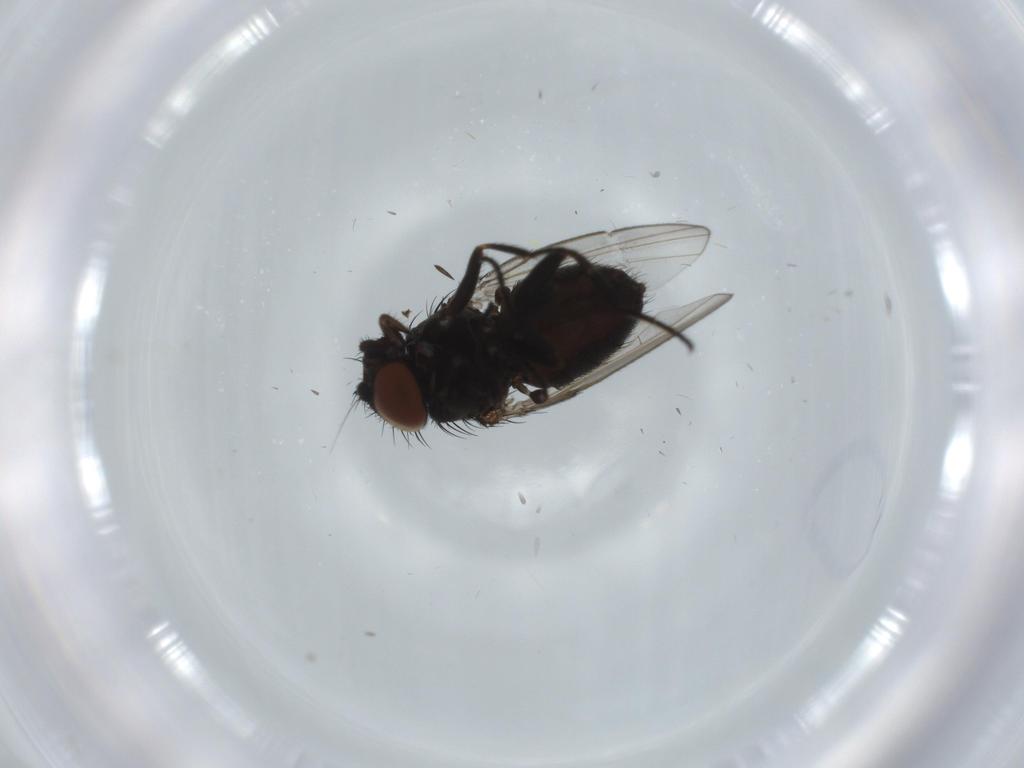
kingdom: Animalia
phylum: Arthropoda
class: Insecta
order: Diptera
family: Milichiidae
